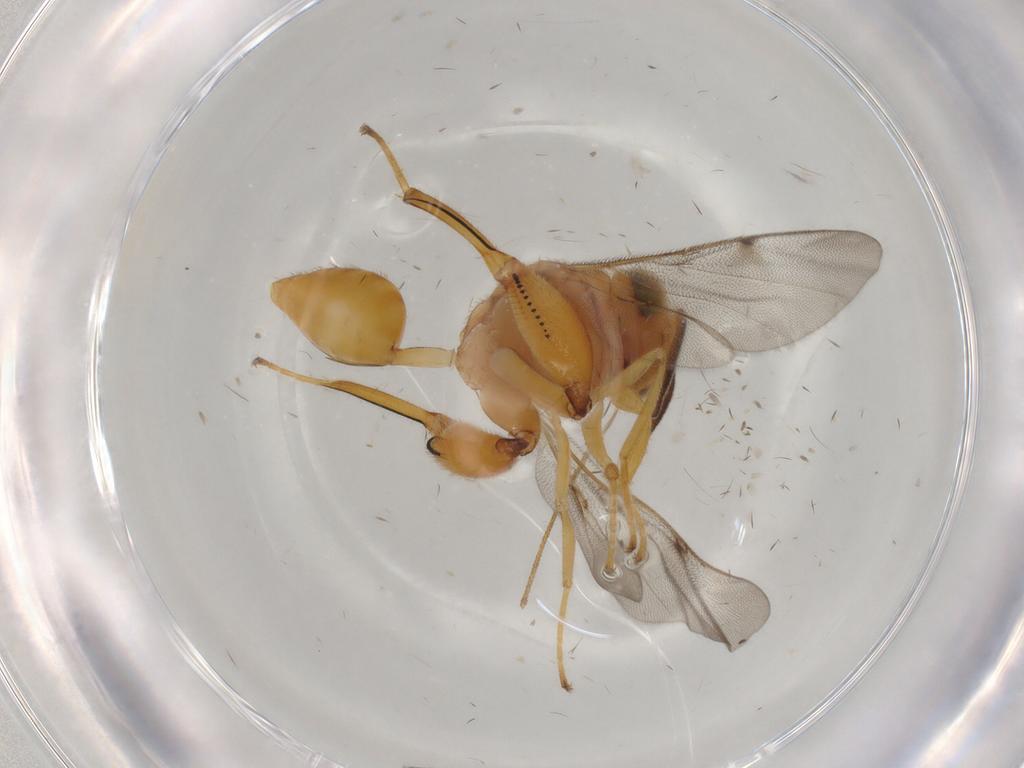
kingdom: Animalia
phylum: Arthropoda
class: Insecta
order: Hymenoptera
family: Chalcididae
